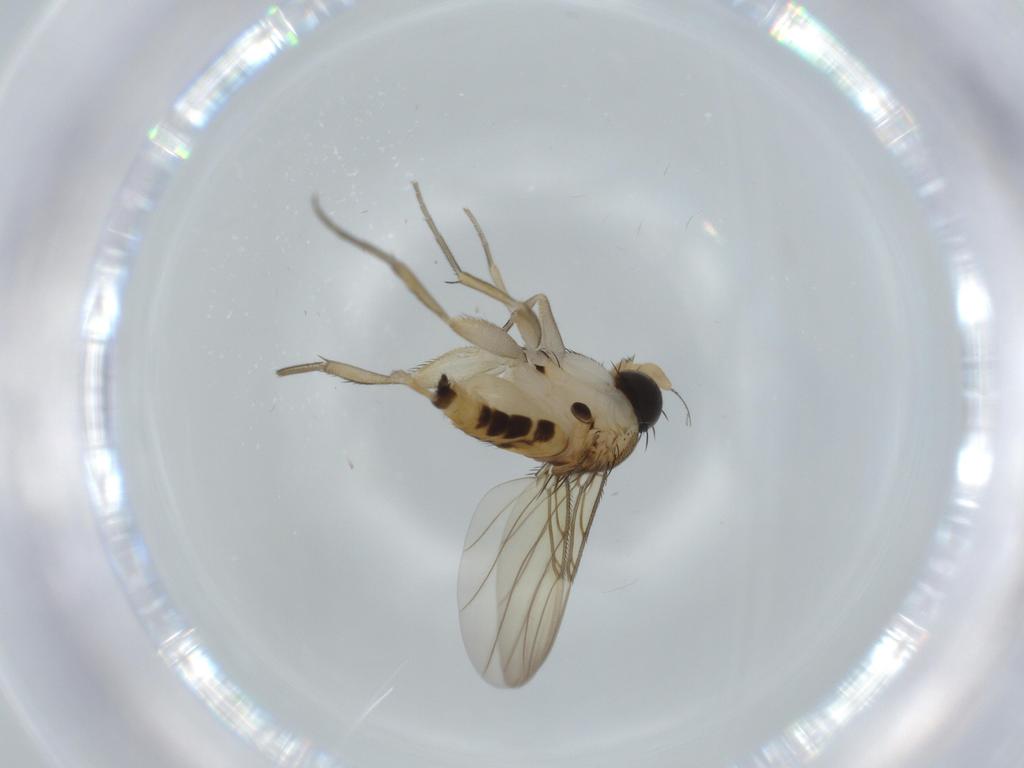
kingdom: Animalia
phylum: Arthropoda
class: Insecta
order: Diptera
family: Phoridae
